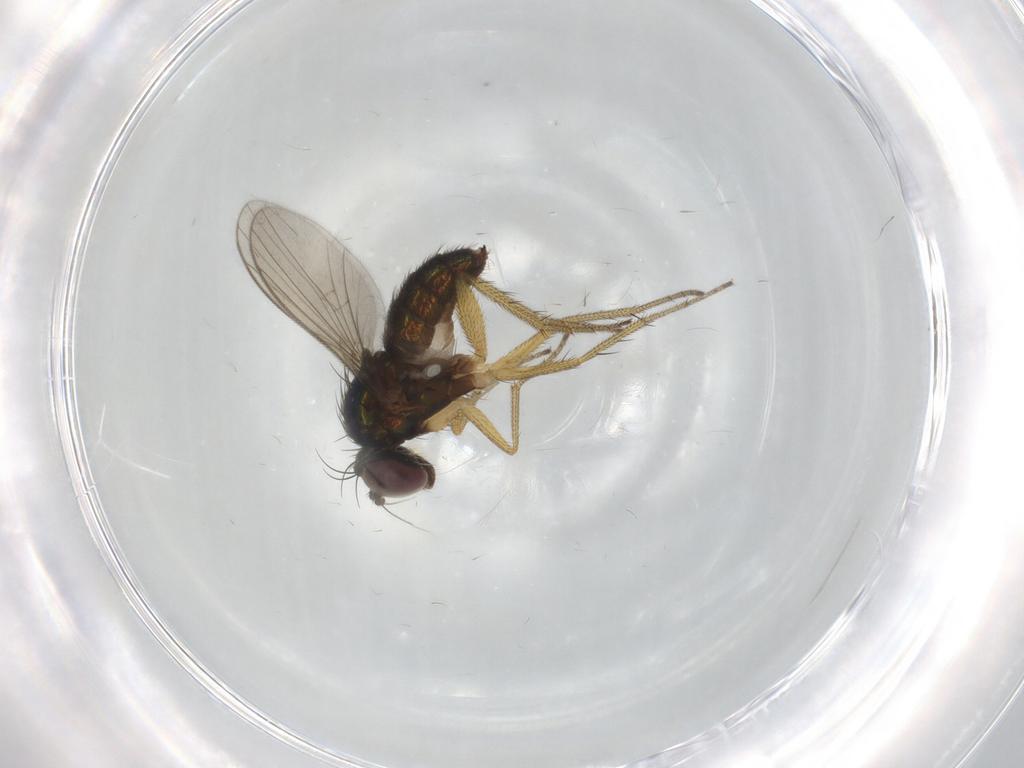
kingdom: Animalia
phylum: Arthropoda
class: Insecta
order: Diptera
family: Dolichopodidae
